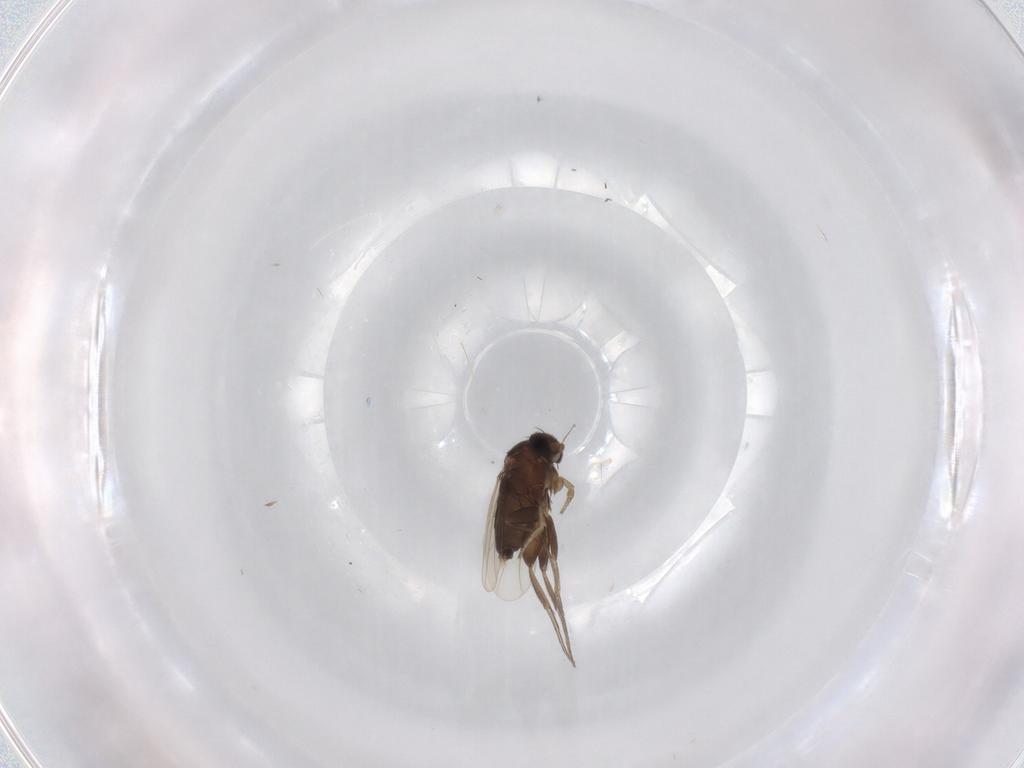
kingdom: Animalia
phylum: Arthropoda
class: Insecta
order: Diptera
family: Phoridae
